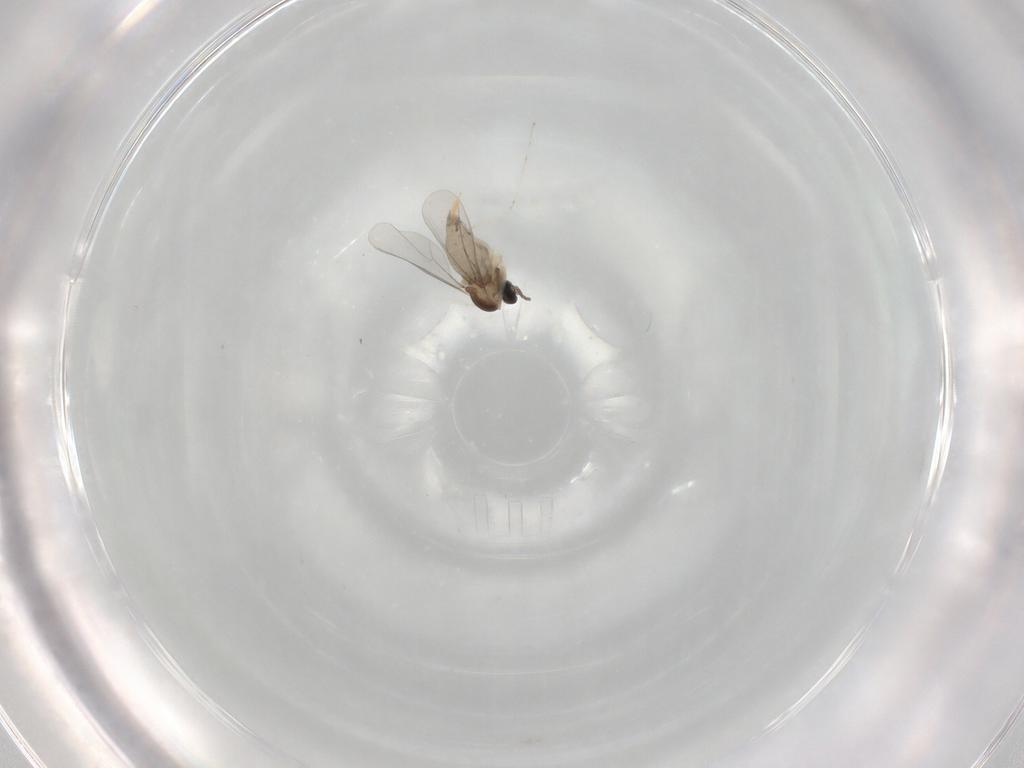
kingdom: Animalia
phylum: Arthropoda
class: Insecta
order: Diptera
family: Cecidomyiidae
